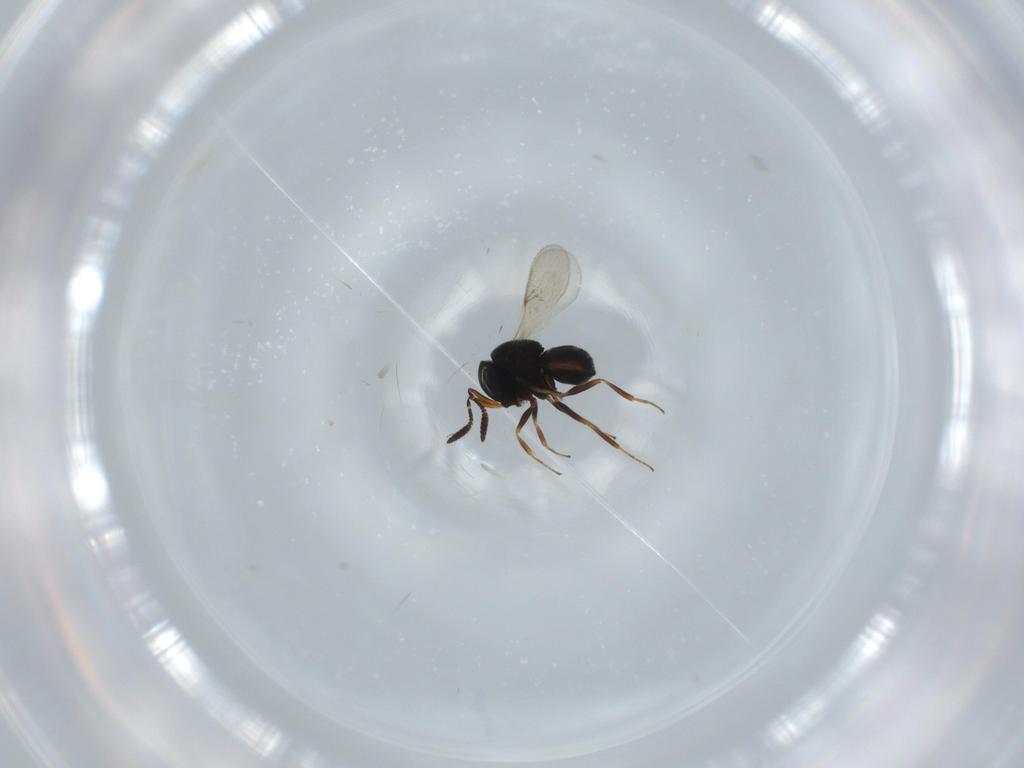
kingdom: Animalia
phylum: Arthropoda
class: Insecta
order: Hymenoptera
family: Scelionidae
